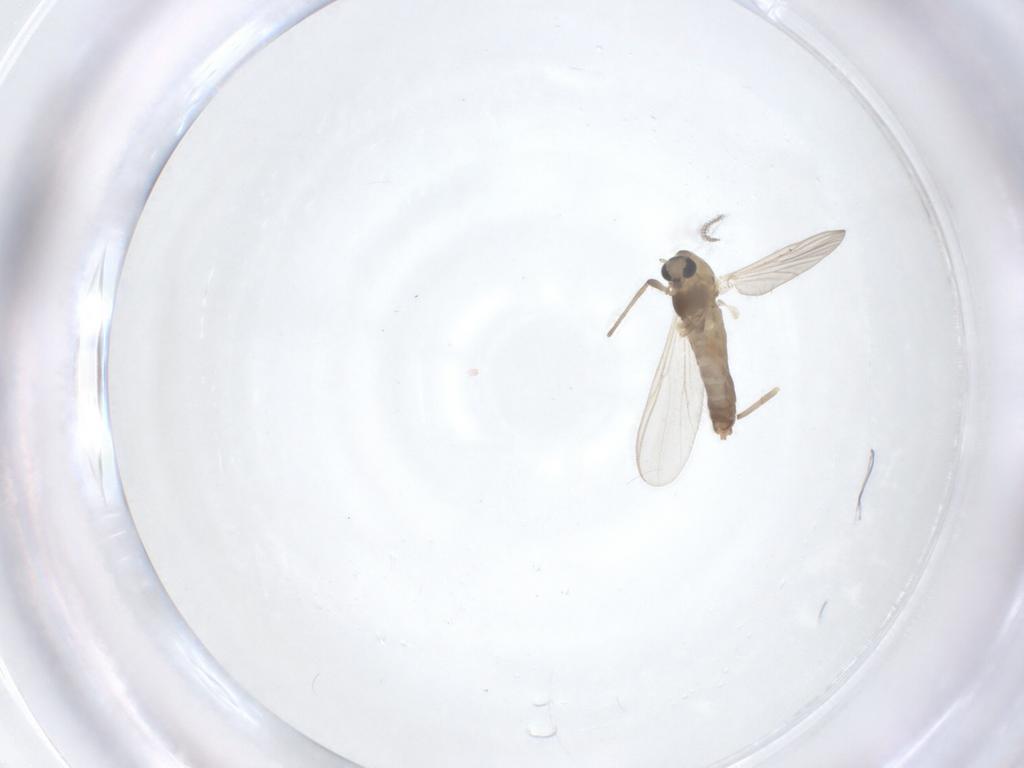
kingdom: Animalia
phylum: Arthropoda
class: Insecta
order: Diptera
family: Chironomidae
